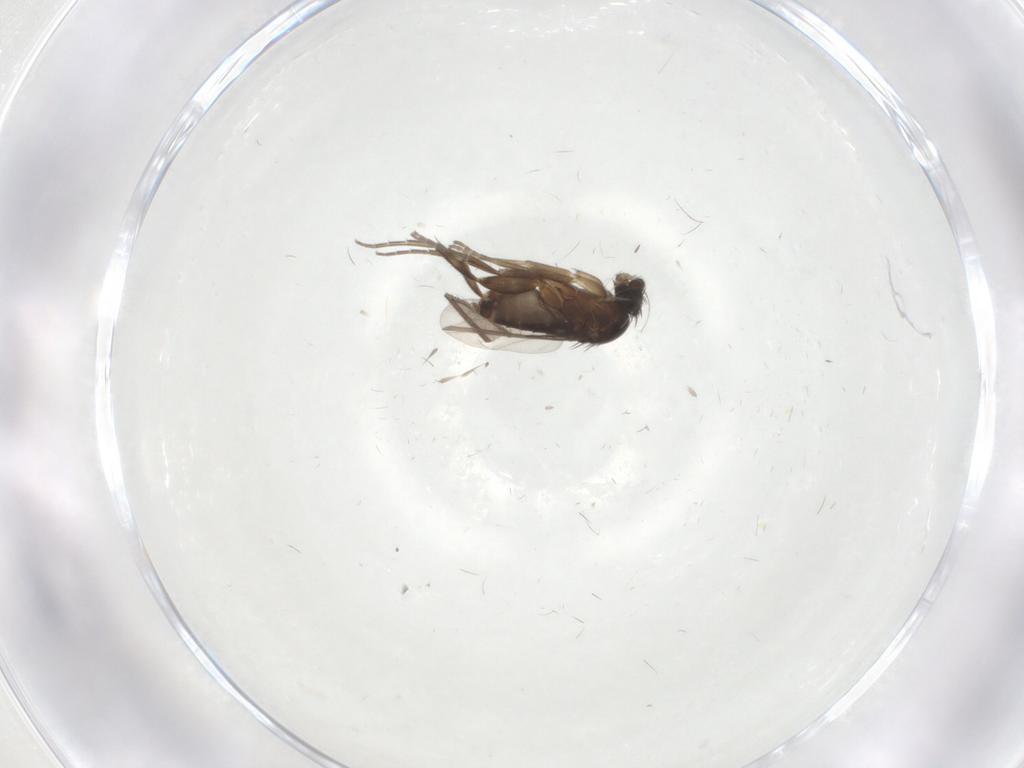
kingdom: Animalia
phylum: Arthropoda
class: Insecta
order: Diptera
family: Phoridae
